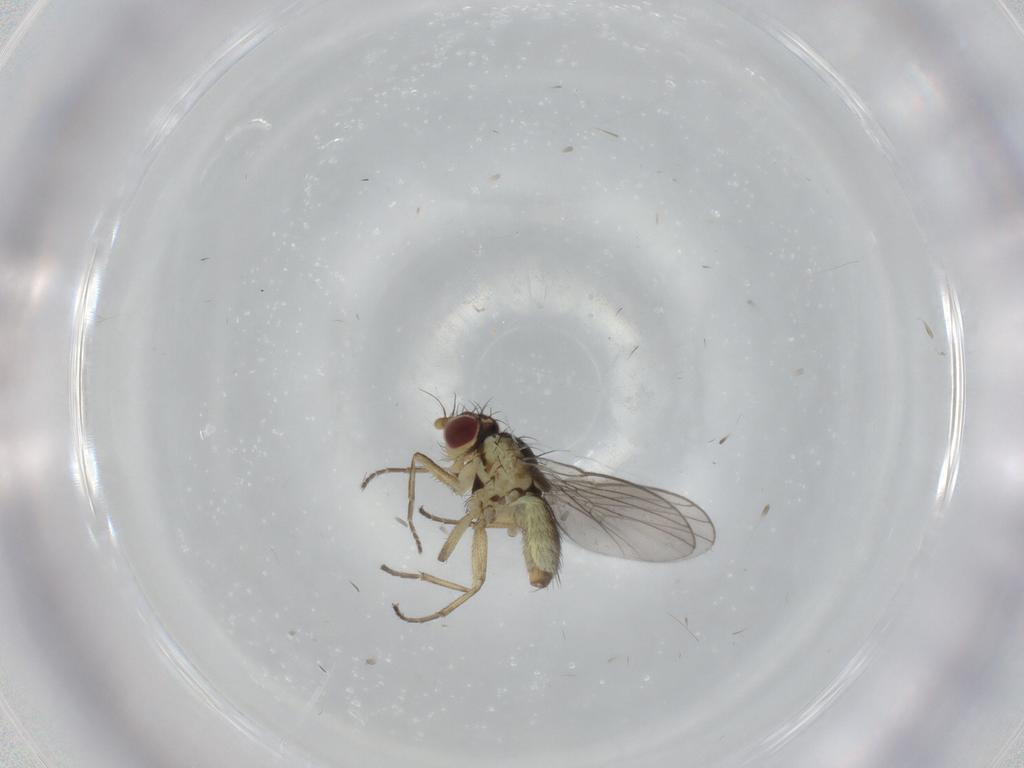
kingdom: Animalia
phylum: Arthropoda
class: Insecta
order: Diptera
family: Agromyzidae
